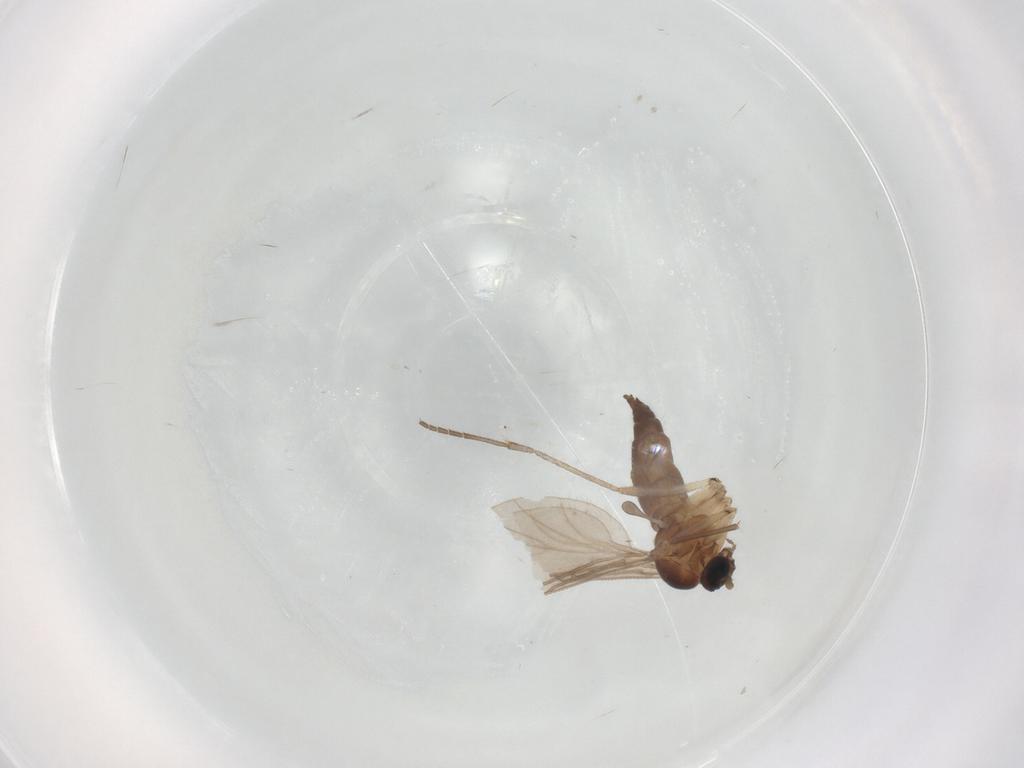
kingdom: Animalia
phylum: Arthropoda
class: Insecta
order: Diptera
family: Sciaridae
